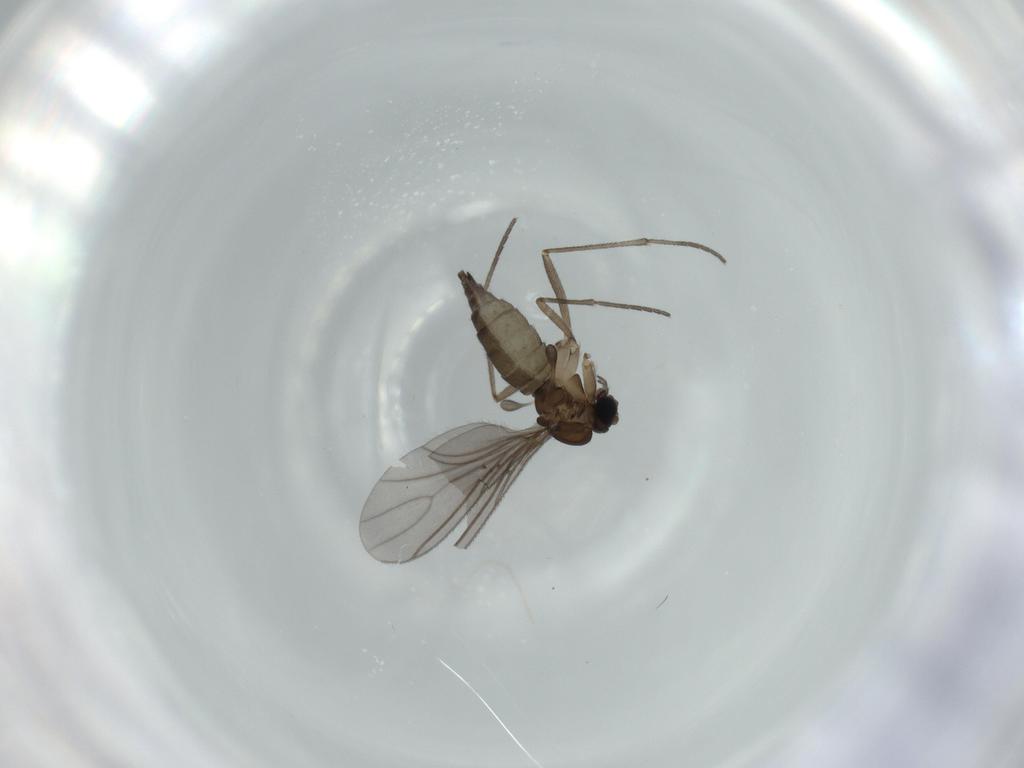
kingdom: Animalia
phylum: Arthropoda
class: Insecta
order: Diptera
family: Sciaridae
